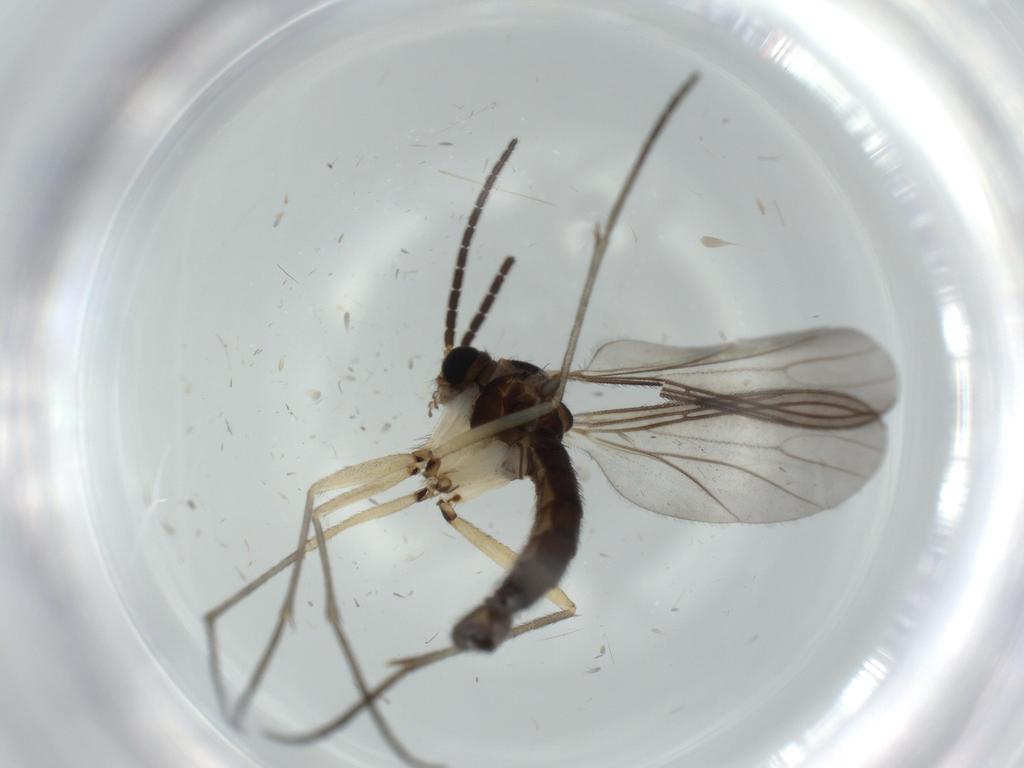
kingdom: Animalia
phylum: Arthropoda
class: Insecta
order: Diptera
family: Sciaridae
